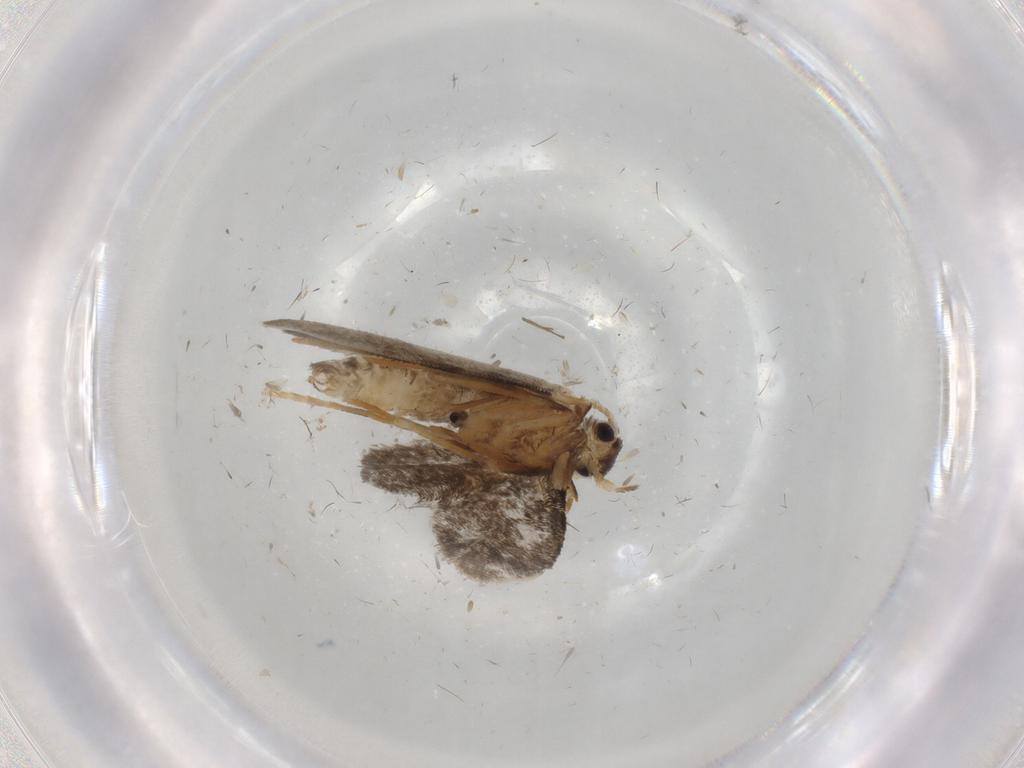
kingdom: Animalia
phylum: Arthropoda
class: Insecta
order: Lepidoptera
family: Psychidae
